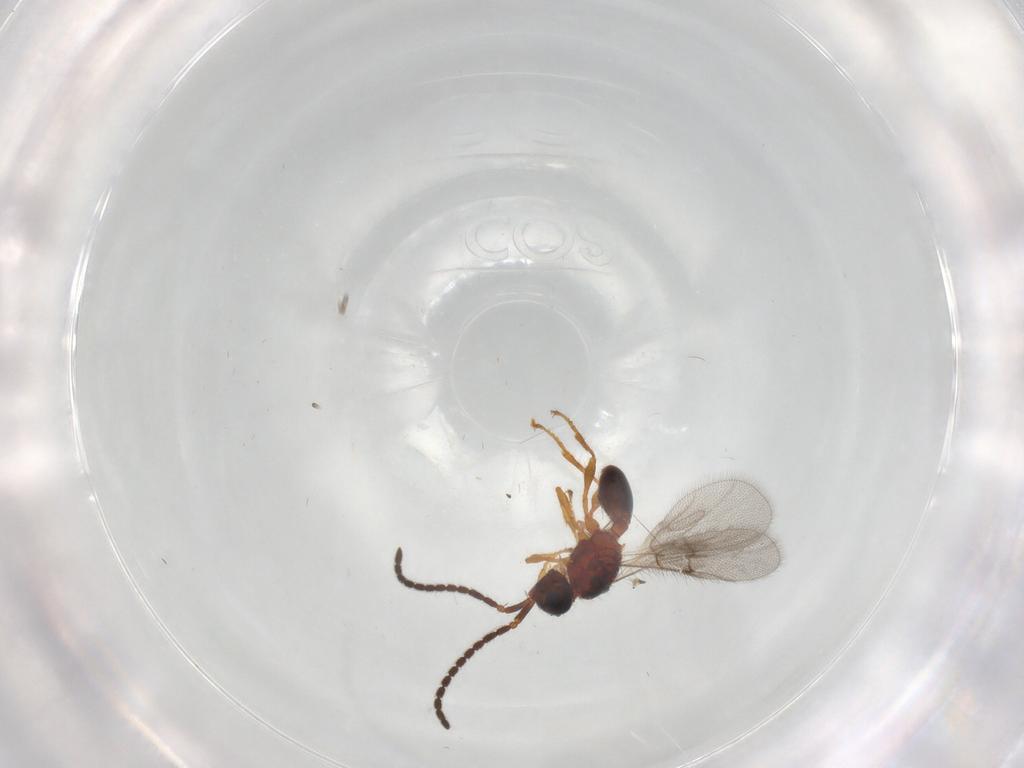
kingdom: Animalia
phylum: Arthropoda
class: Insecta
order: Hymenoptera
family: Diapriidae
